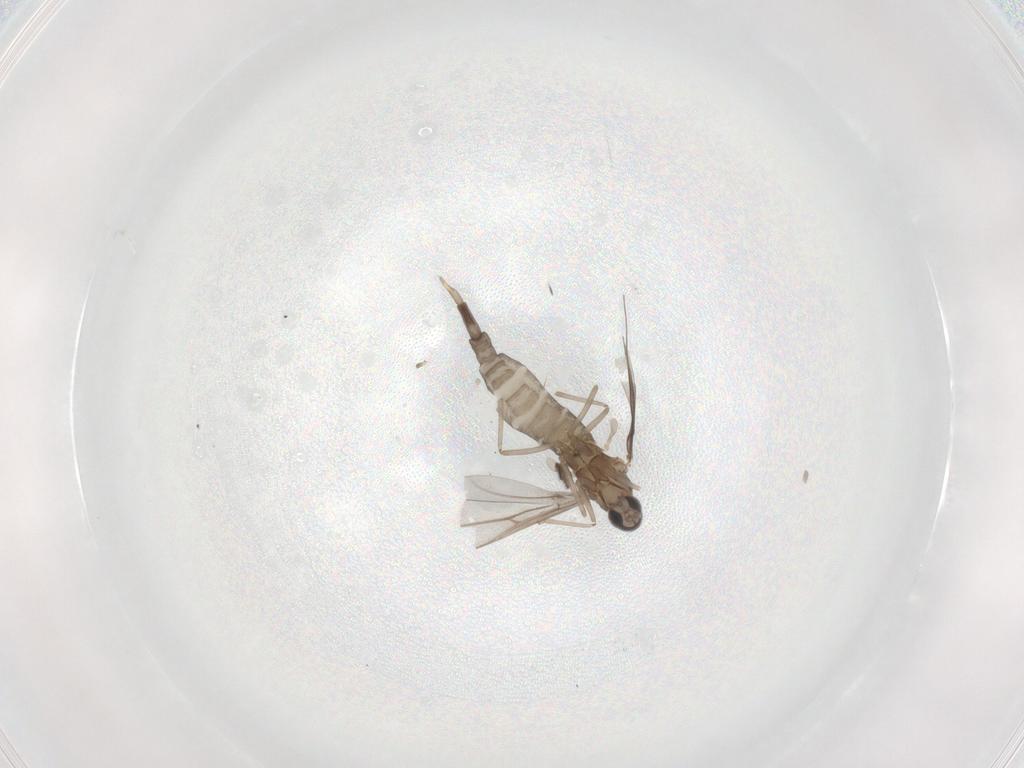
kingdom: Animalia
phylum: Arthropoda
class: Insecta
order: Diptera
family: Cecidomyiidae
